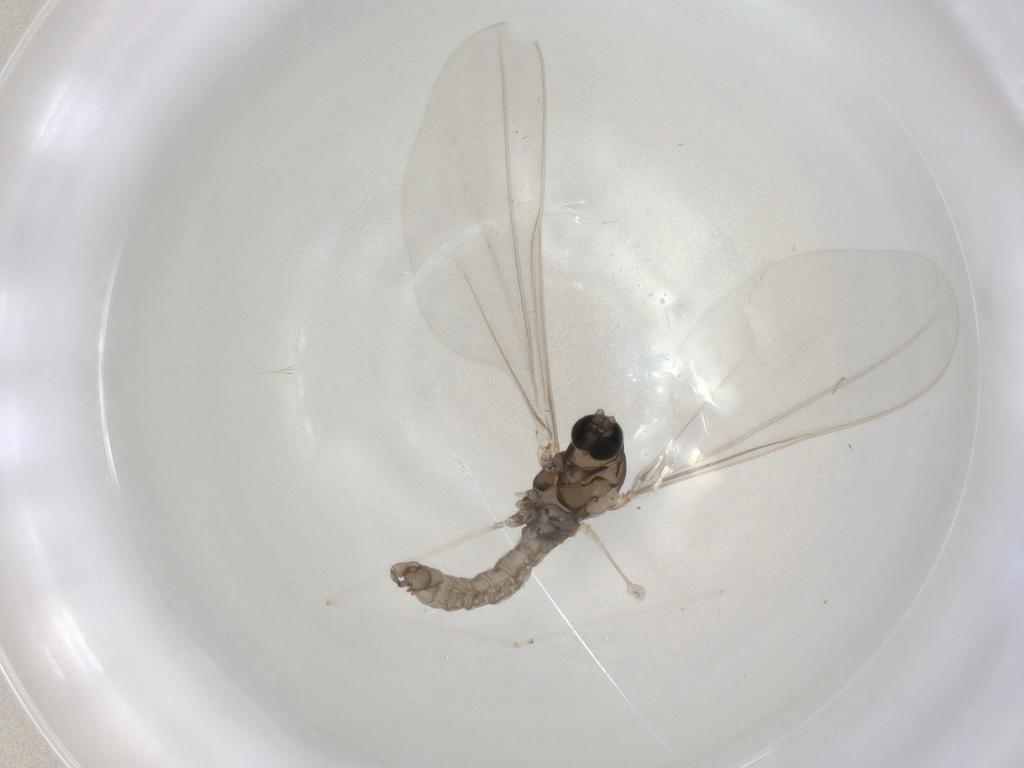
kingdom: Animalia
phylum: Arthropoda
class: Insecta
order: Diptera
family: Cecidomyiidae
